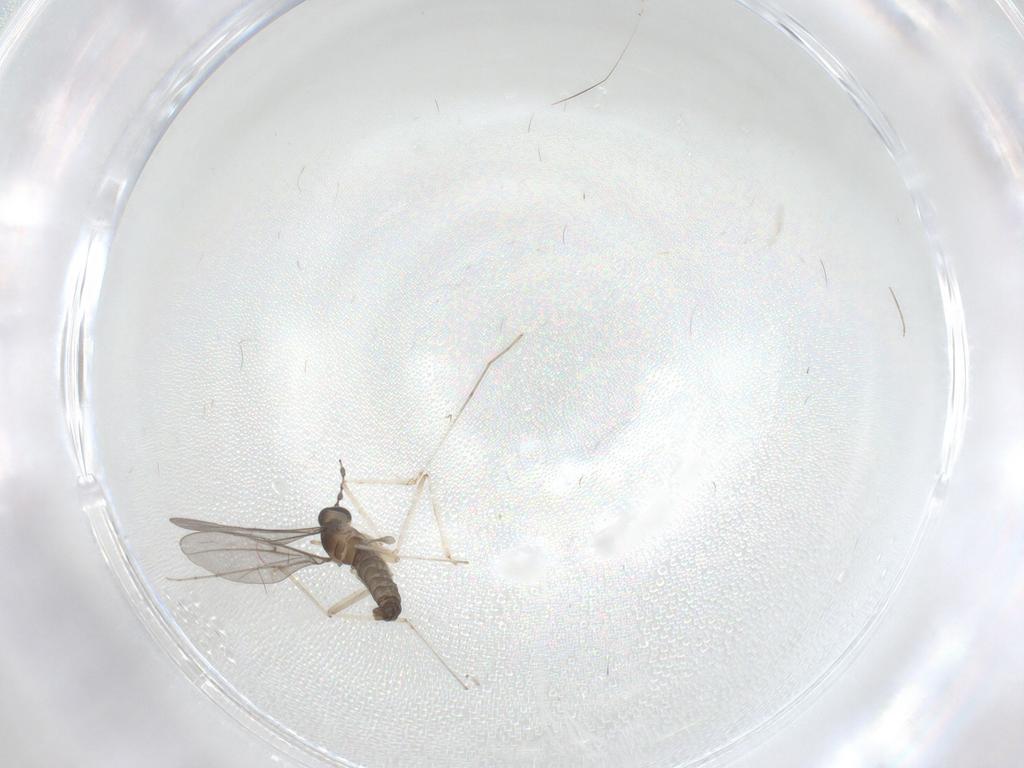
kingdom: Animalia
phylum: Arthropoda
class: Insecta
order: Diptera
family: Cecidomyiidae
